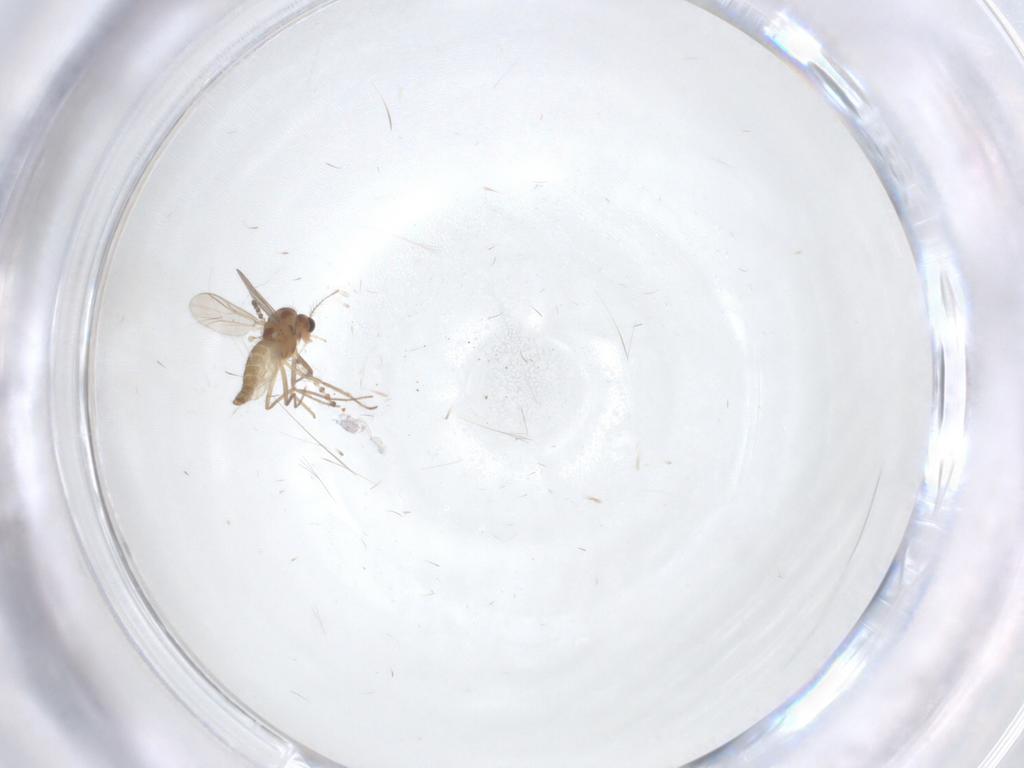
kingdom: Animalia
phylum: Arthropoda
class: Insecta
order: Diptera
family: Cecidomyiidae
